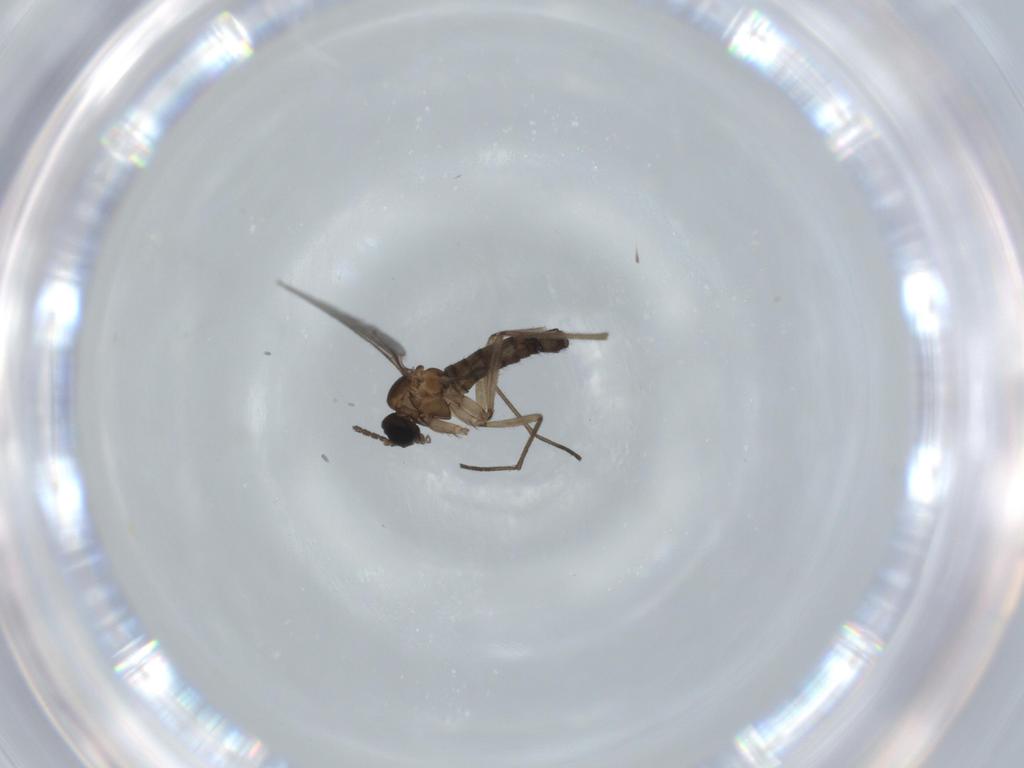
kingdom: Animalia
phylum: Arthropoda
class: Insecta
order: Diptera
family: Sciaridae
